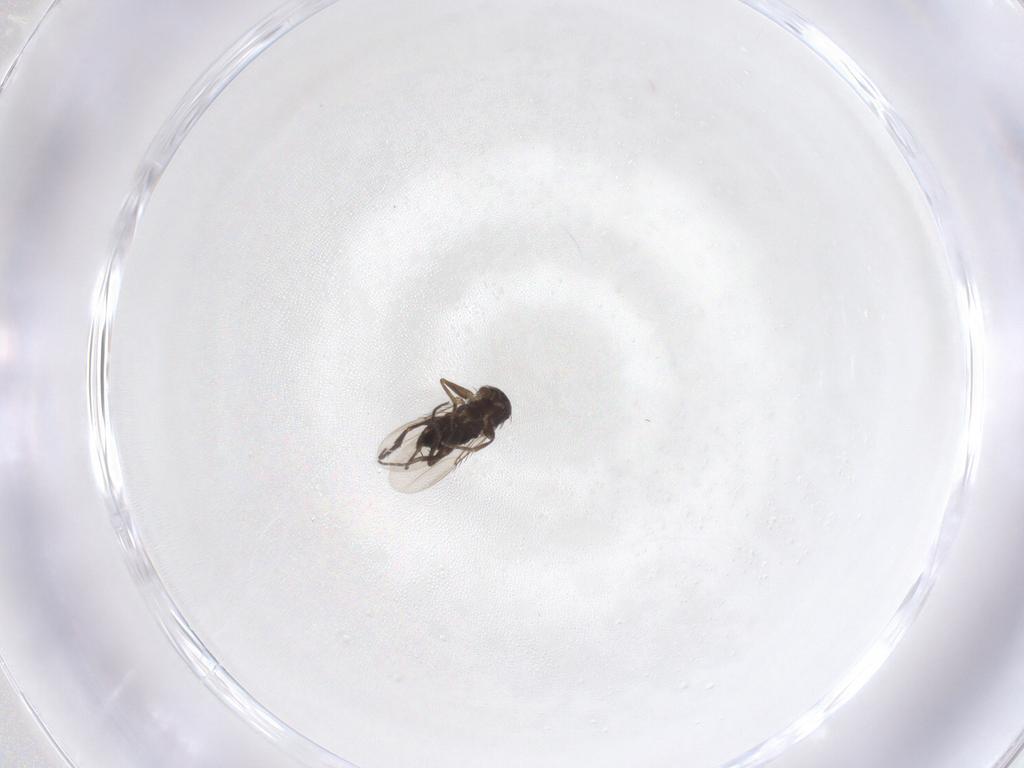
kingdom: Animalia
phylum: Arthropoda
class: Insecta
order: Diptera
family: Phoridae
